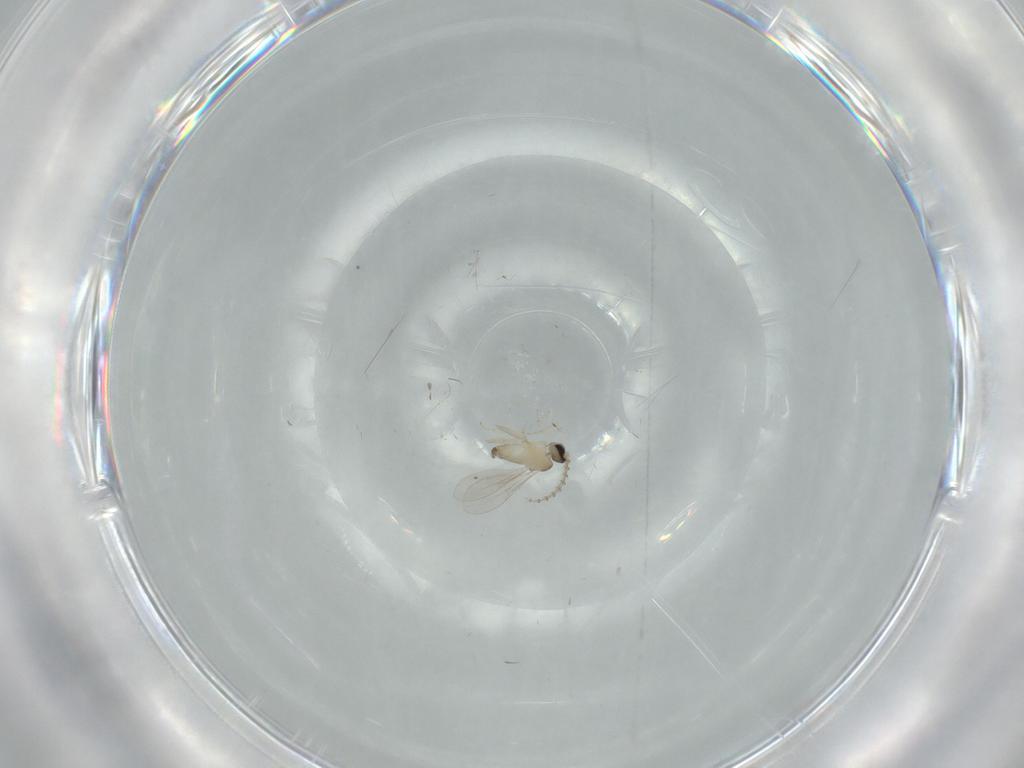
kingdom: Animalia
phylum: Arthropoda
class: Insecta
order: Diptera
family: Cecidomyiidae
